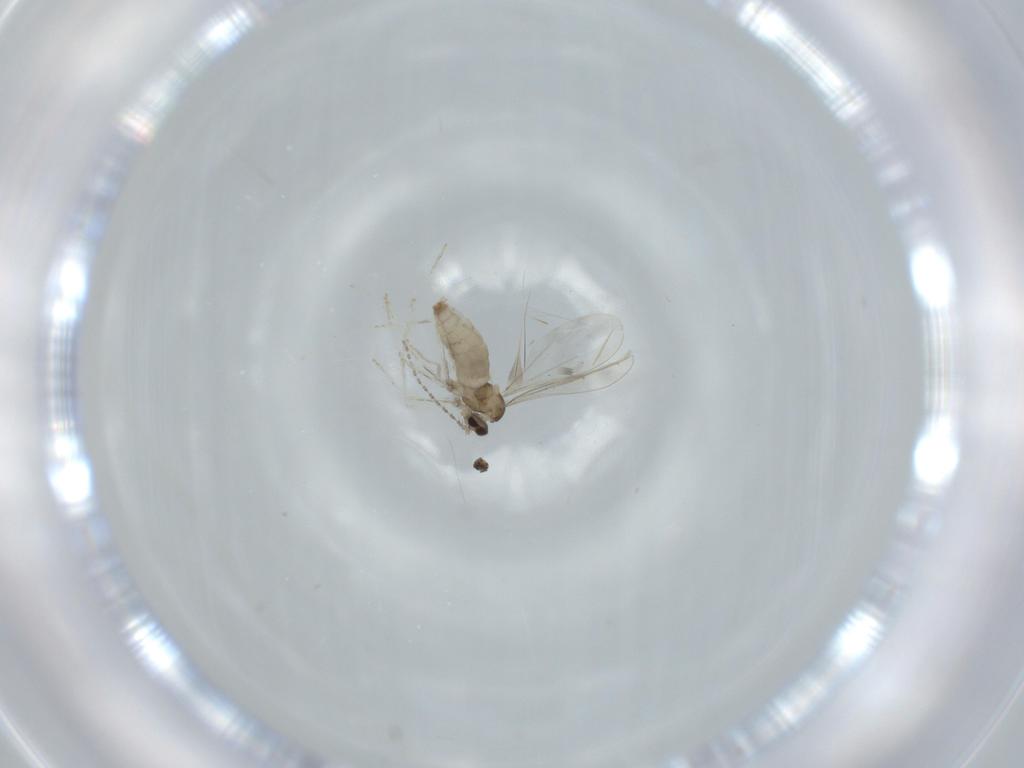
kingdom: Animalia
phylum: Arthropoda
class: Insecta
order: Diptera
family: Cecidomyiidae
